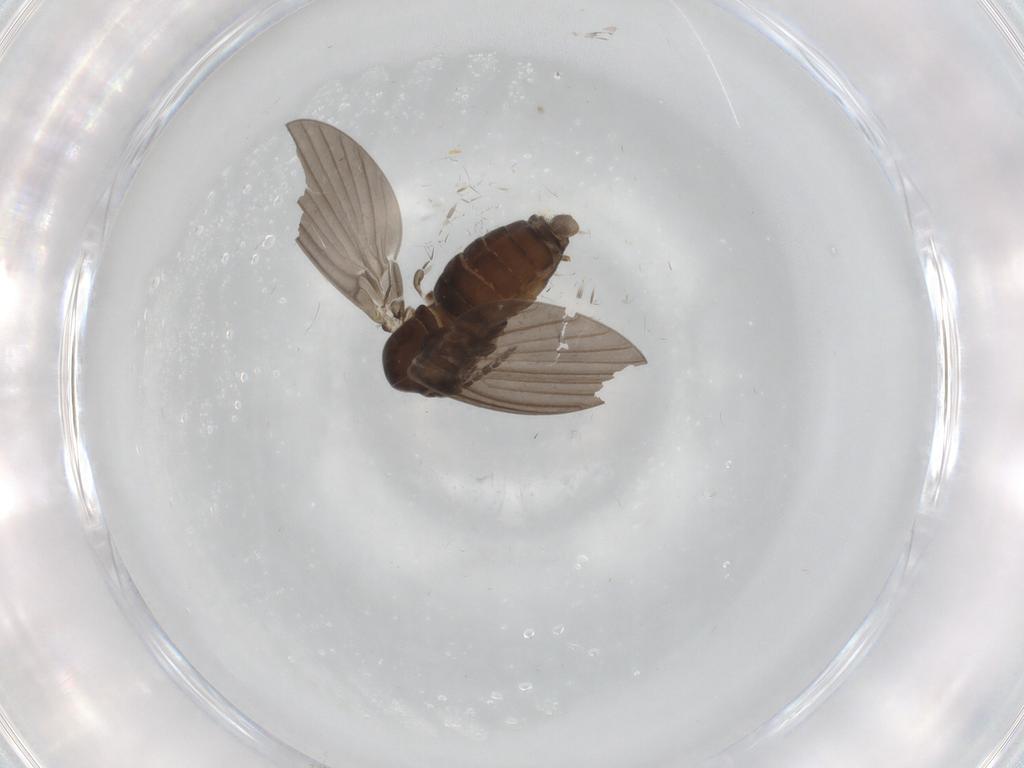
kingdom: Animalia
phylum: Arthropoda
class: Insecta
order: Diptera
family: Psychodidae
